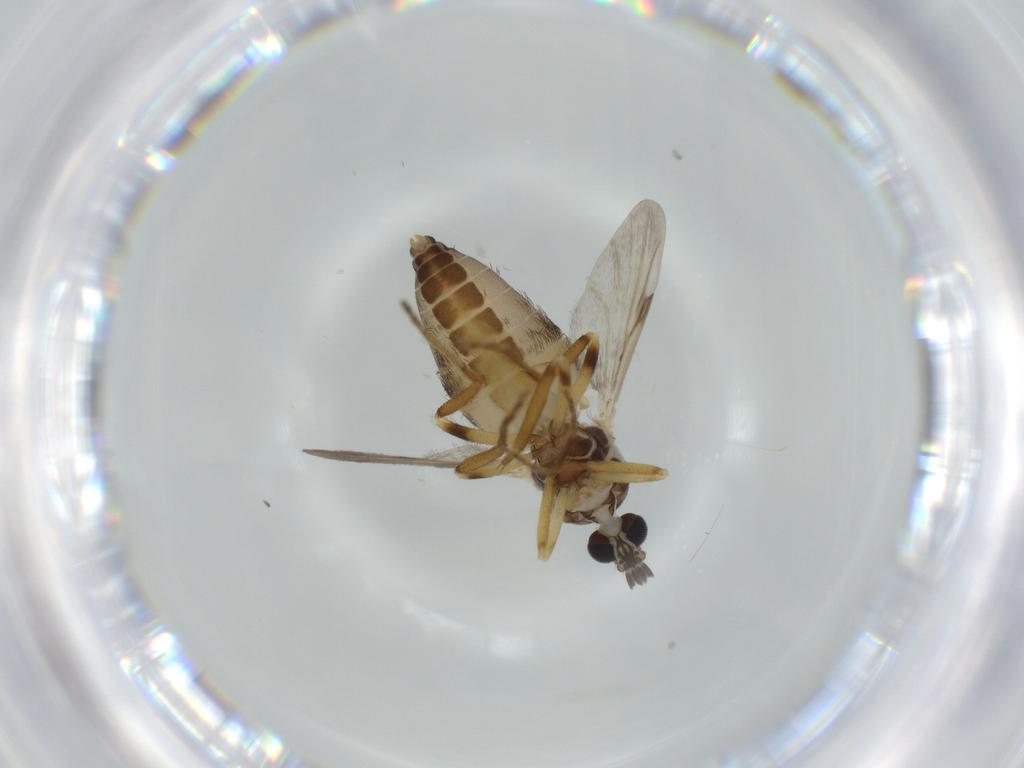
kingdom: Animalia
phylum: Arthropoda
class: Insecta
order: Diptera
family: Ceratopogonidae
